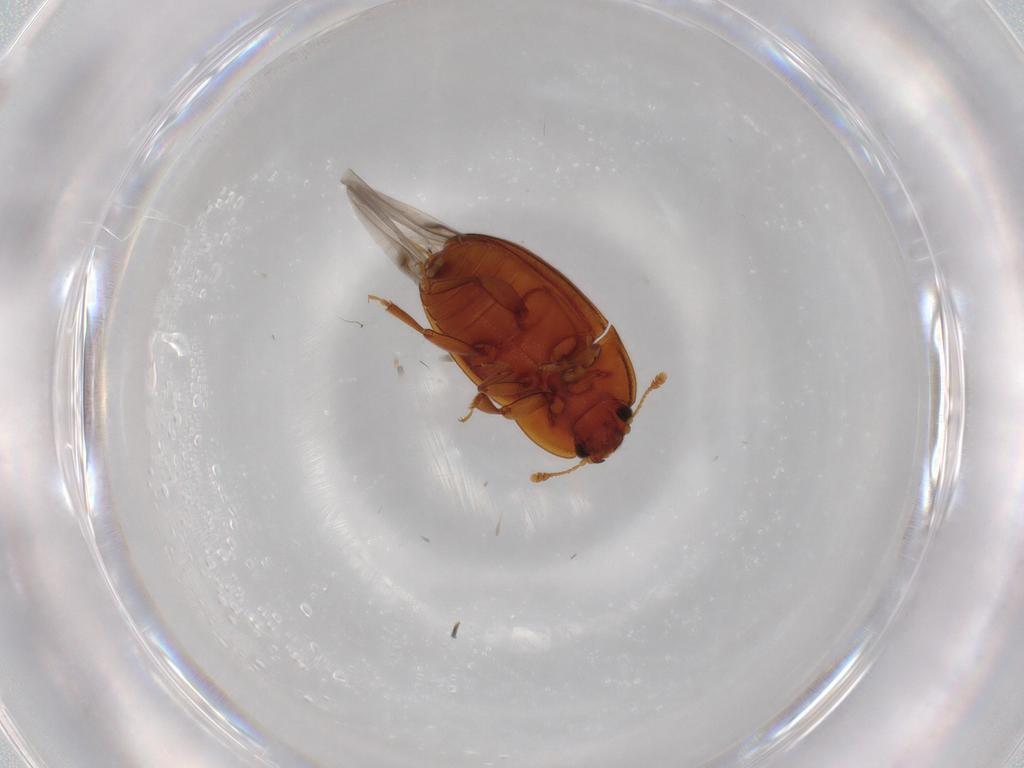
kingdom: Animalia
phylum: Arthropoda
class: Insecta
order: Coleoptera
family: Nitidulidae
